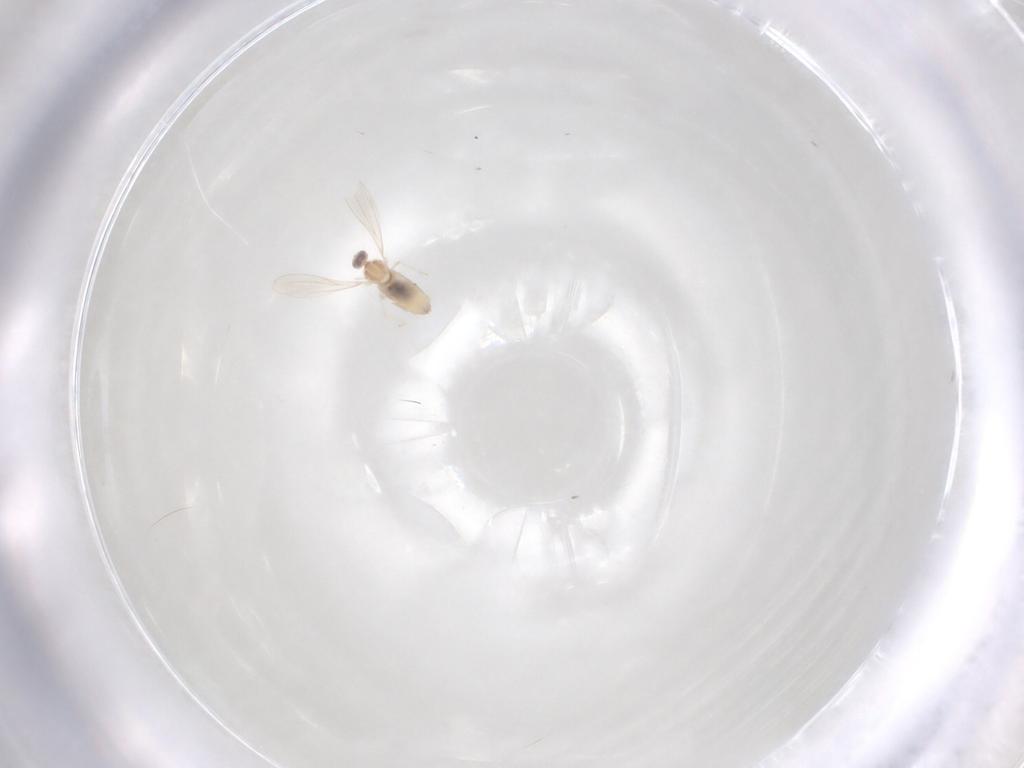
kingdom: Animalia
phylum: Arthropoda
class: Insecta
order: Diptera
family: Cecidomyiidae
